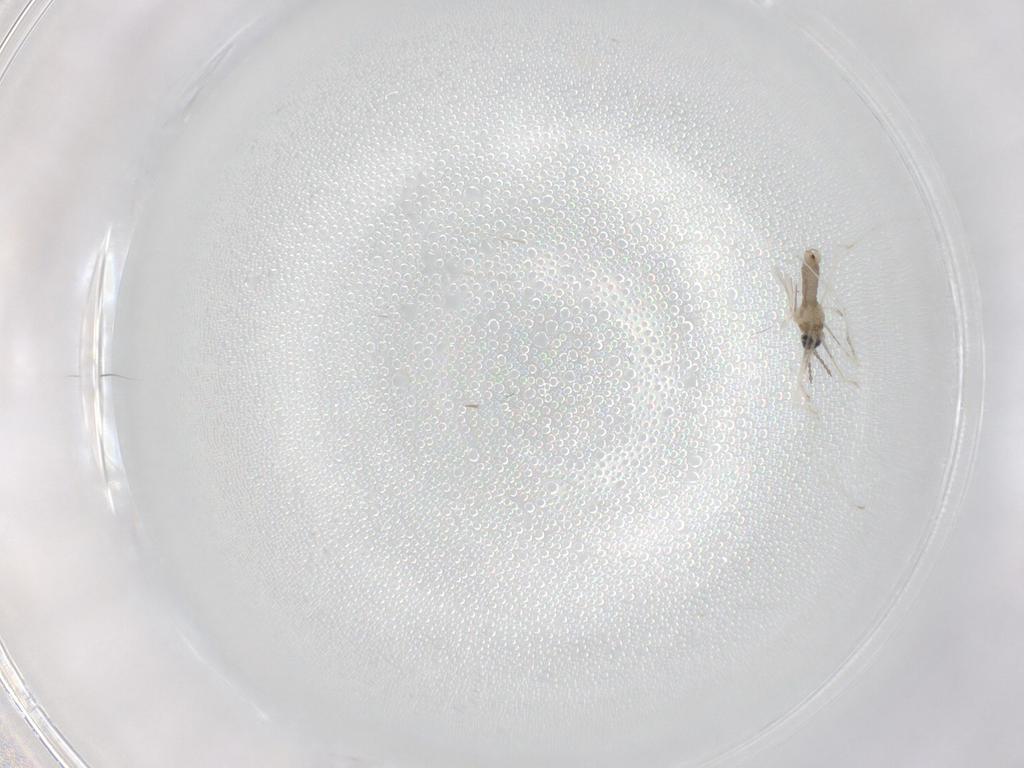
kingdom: Animalia
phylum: Arthropoda
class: Insecta
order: Diptera
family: Cecidomyiidae
